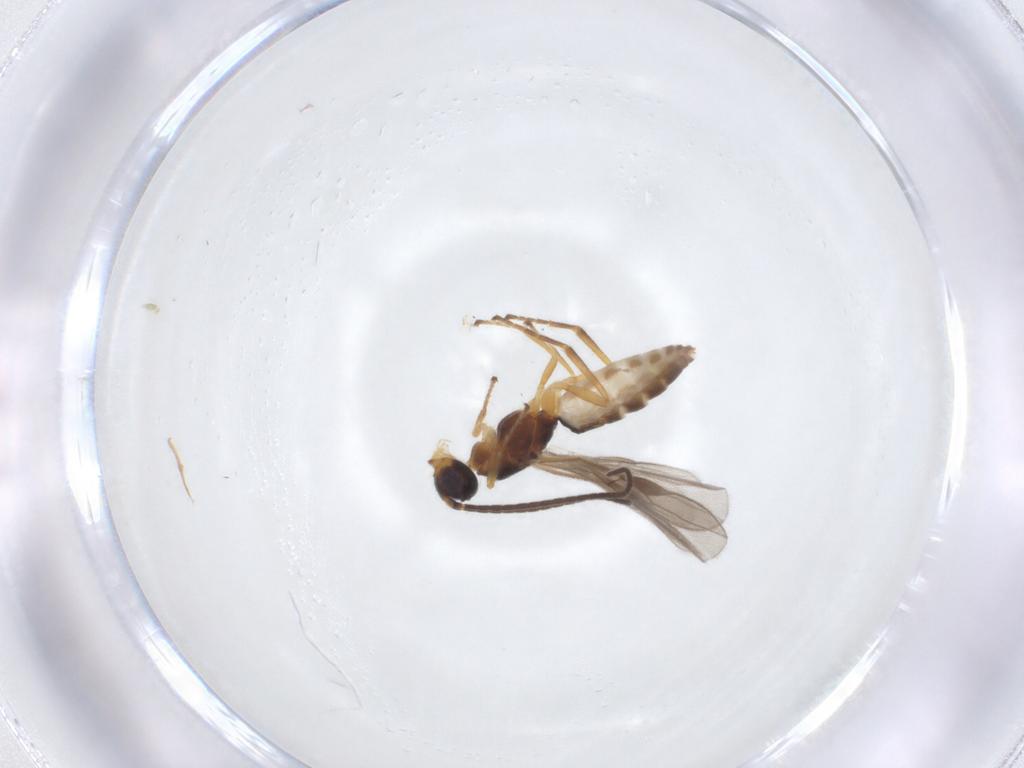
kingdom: Animalia
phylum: Arthropoda
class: Insecta
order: Hymenoptera
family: Braconidae
